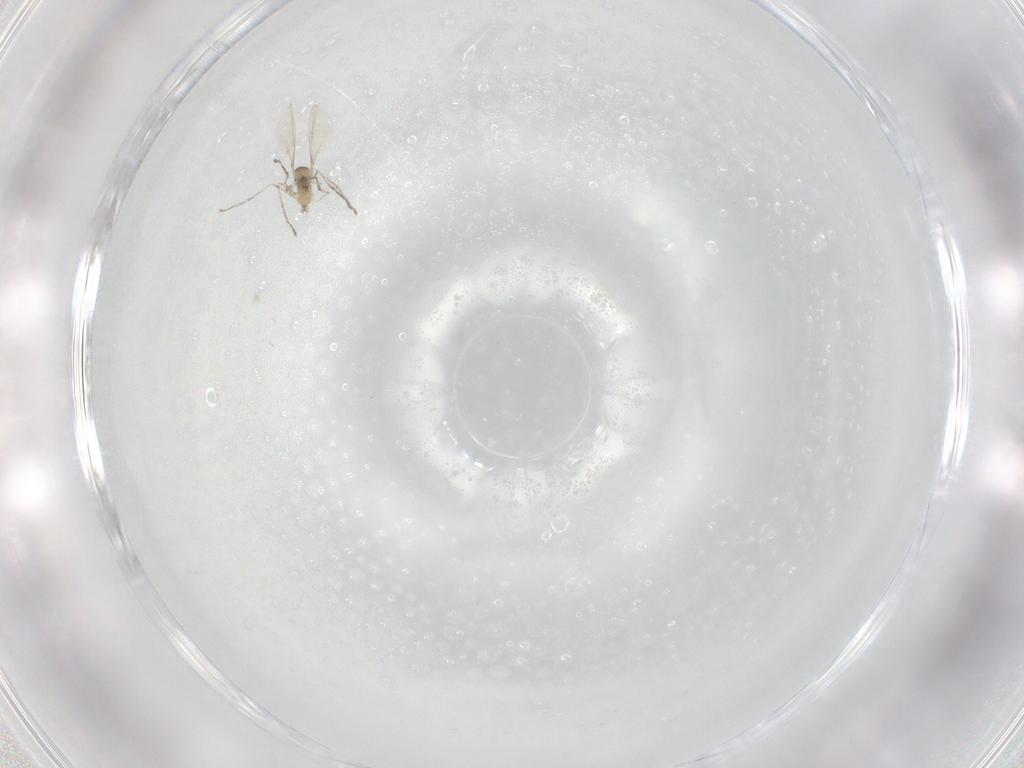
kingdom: Animalia
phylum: Arthropoda
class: Insecta
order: Diptera
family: Cecidomyiidae
